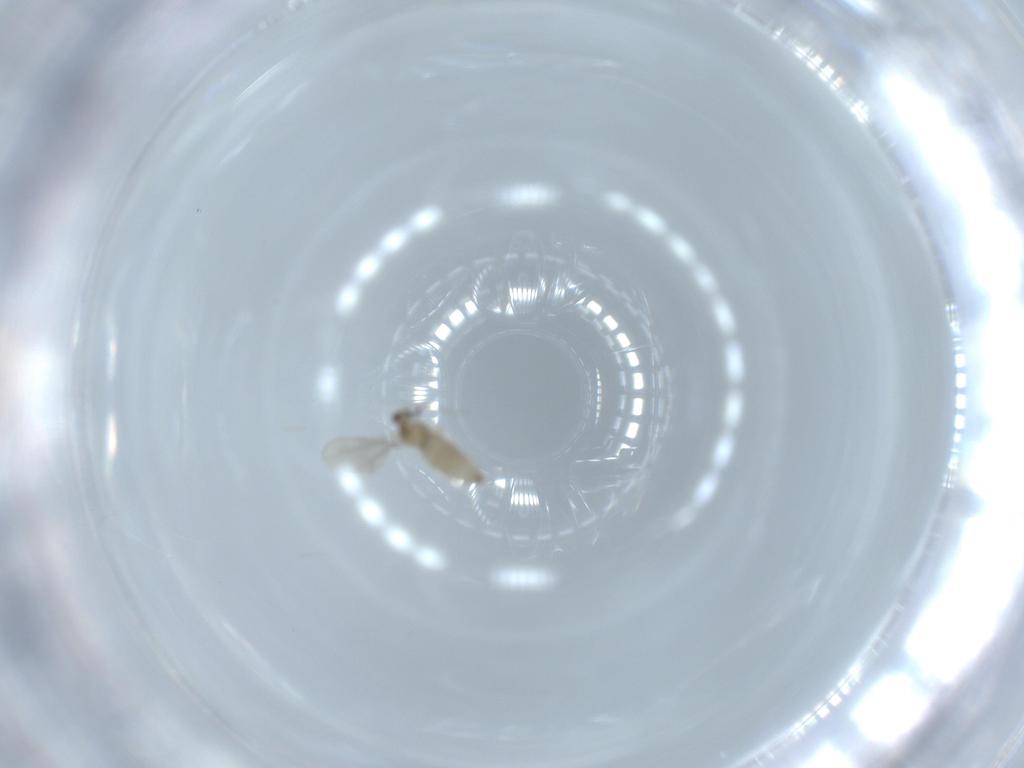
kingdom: Animalia
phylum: Arthropoda
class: Insecta
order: Diptera
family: Cecidomyiidae
